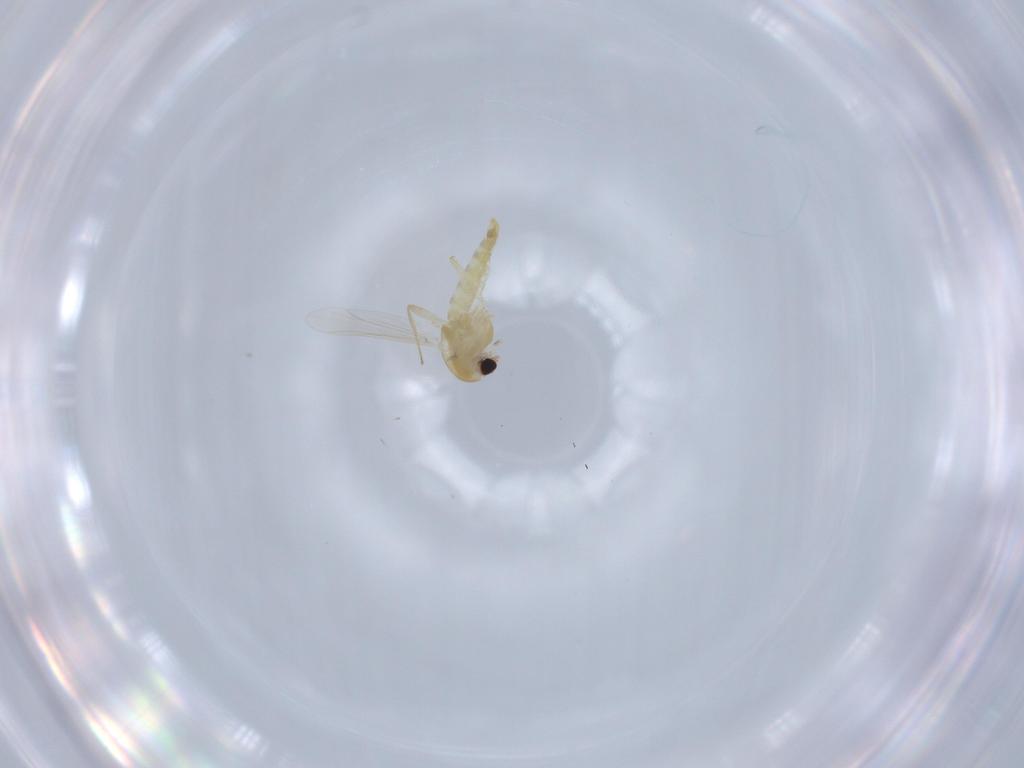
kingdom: Animalia
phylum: Arthropoda
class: Insecta
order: Diptera
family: Chironomidae
